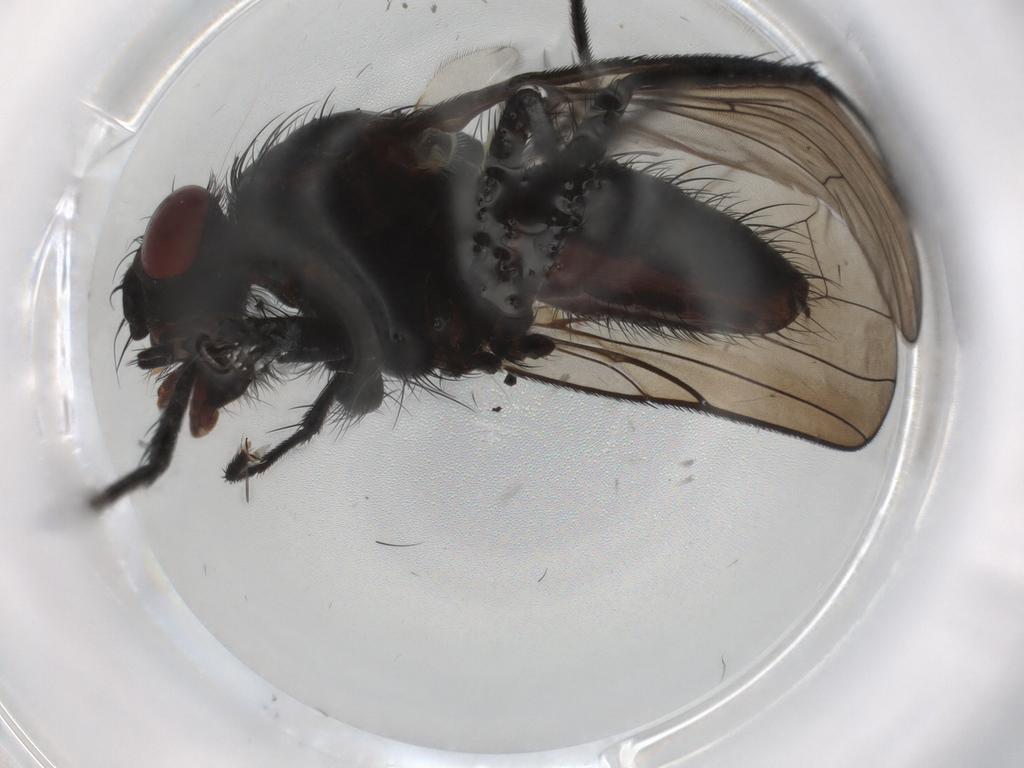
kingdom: Animalia
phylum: Arthropoda
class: Insecta
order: Diptera
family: Anthomyiidae
